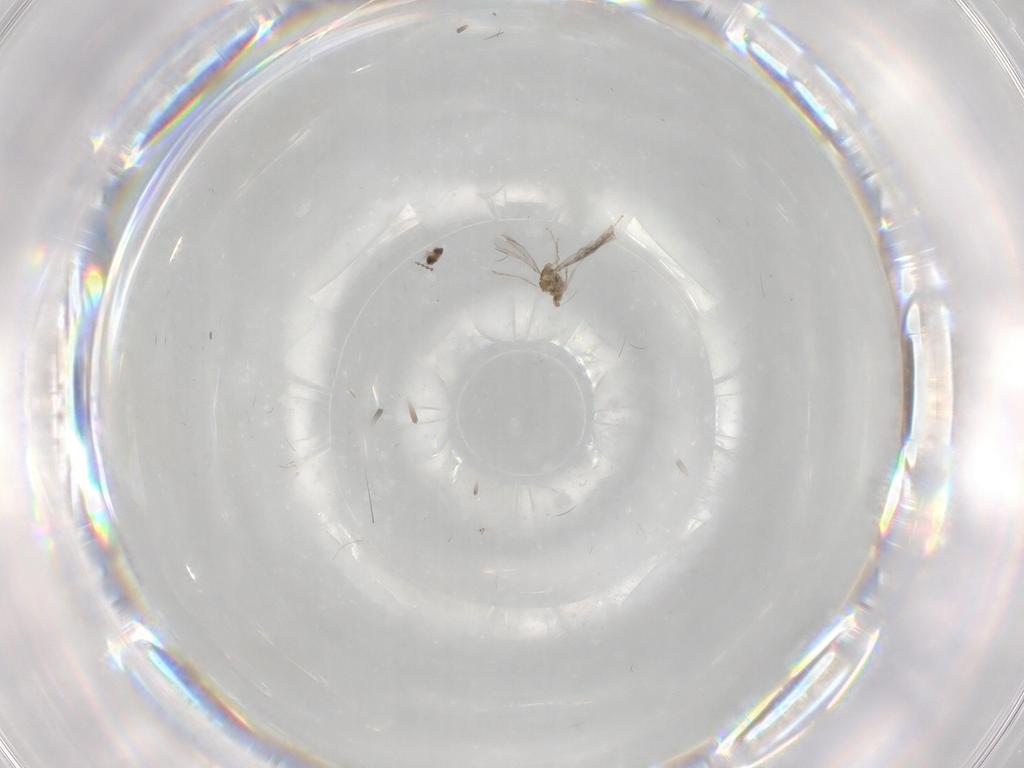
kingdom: Animalia
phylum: Arthropoda
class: Insecta
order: Diptera
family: Cecidomyiidae
